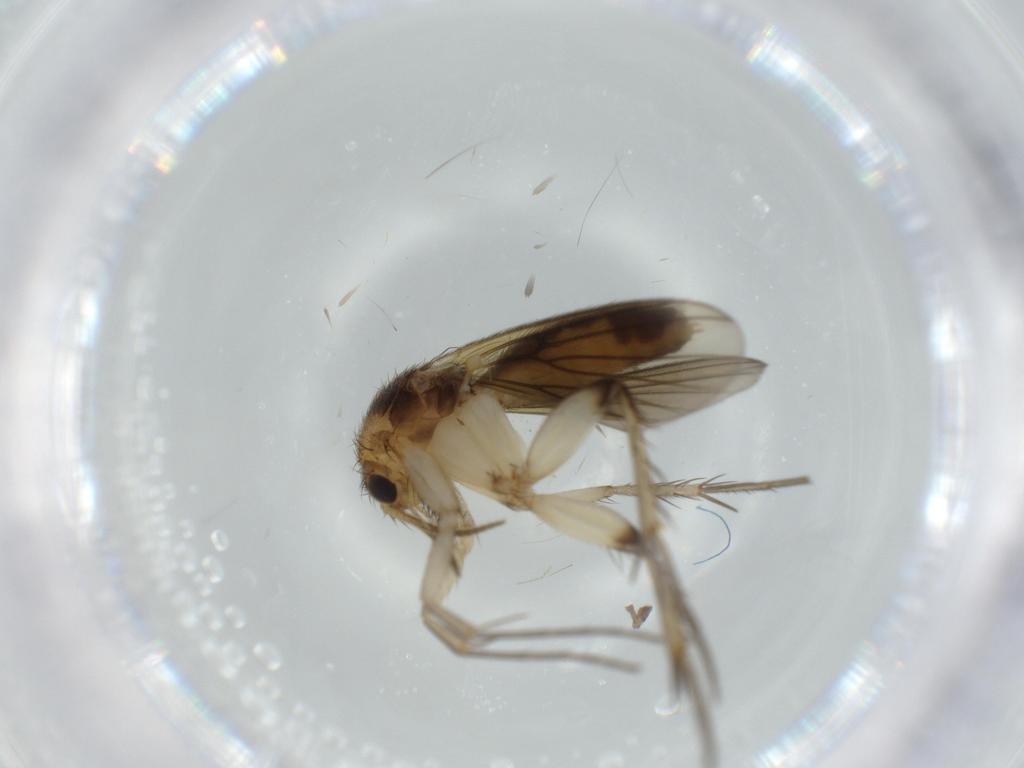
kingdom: Animalia
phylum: Arthropoda
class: Insecta
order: Diptera
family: Mycetophilidae
